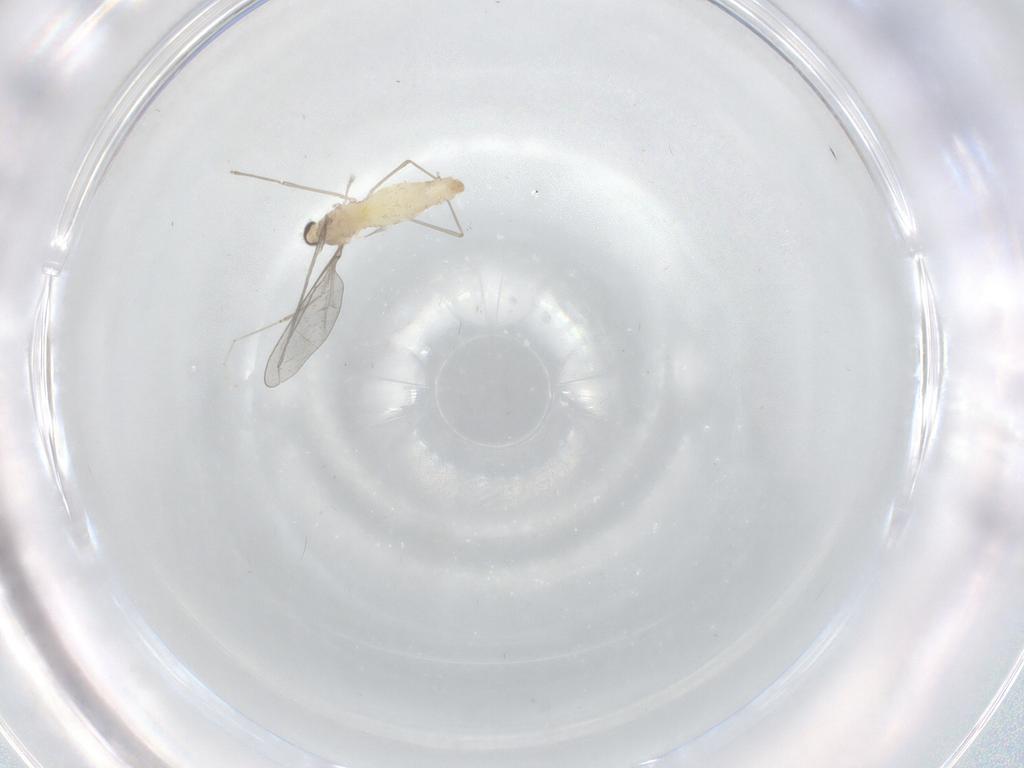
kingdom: Animalia
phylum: Arthropoda
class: Insecta
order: Diptera
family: Cecidomyiidae
